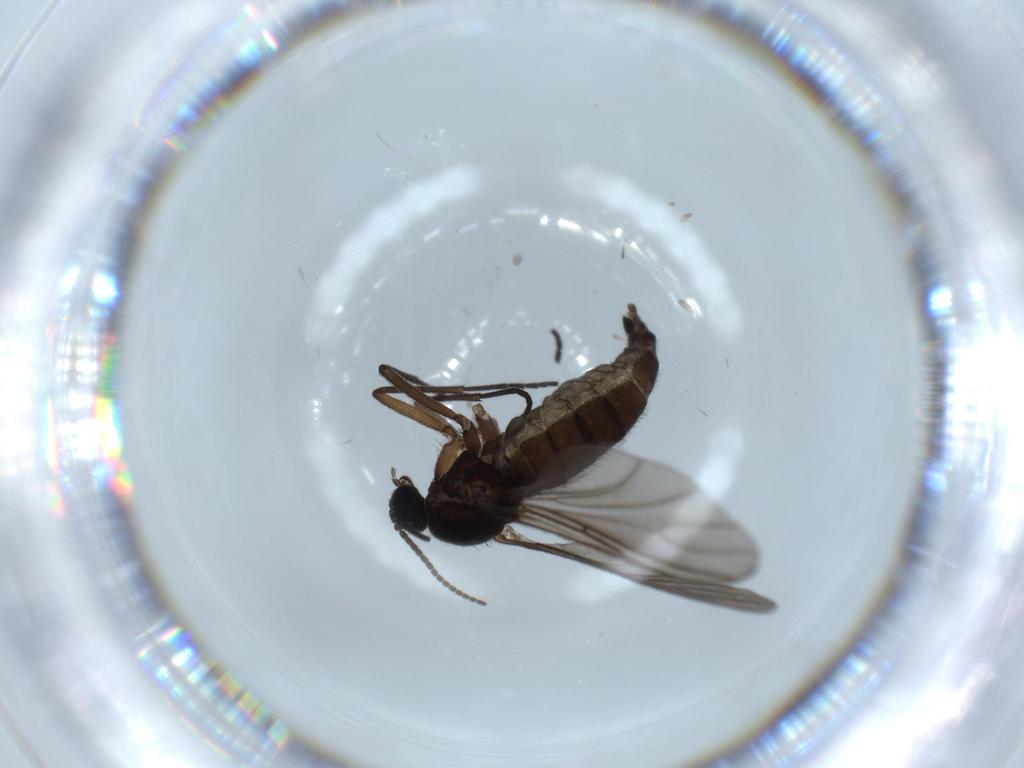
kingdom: Animalia
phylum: Arthropoda
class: Insecta
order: Diptera
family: Sciaridae
